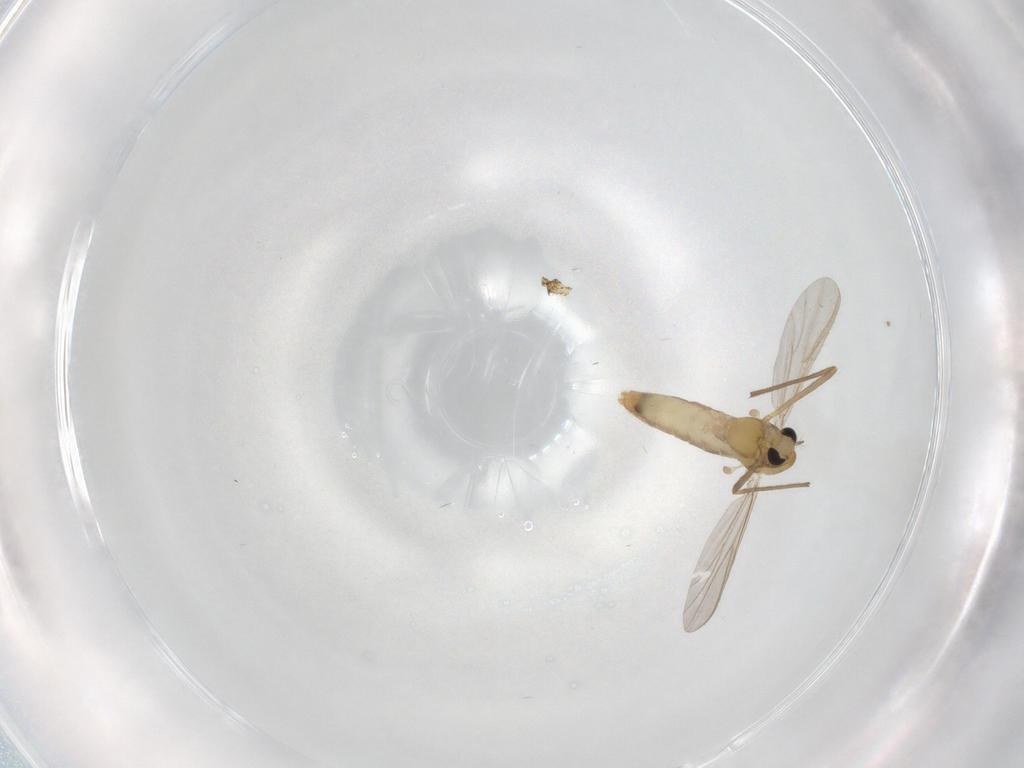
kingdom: Animalia
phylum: Arthropoda
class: Insecta
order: Diptera
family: Chironomidae
